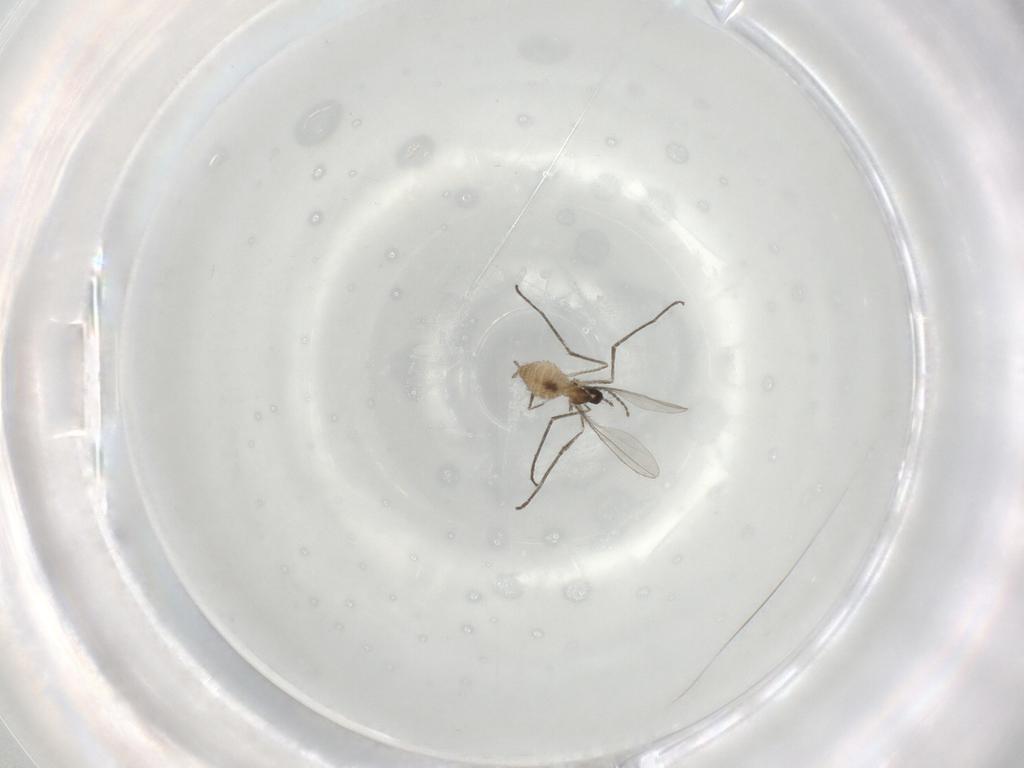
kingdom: Animalia
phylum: Arthropoda
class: Insecta
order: Diptera
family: Cecidomyiidae
